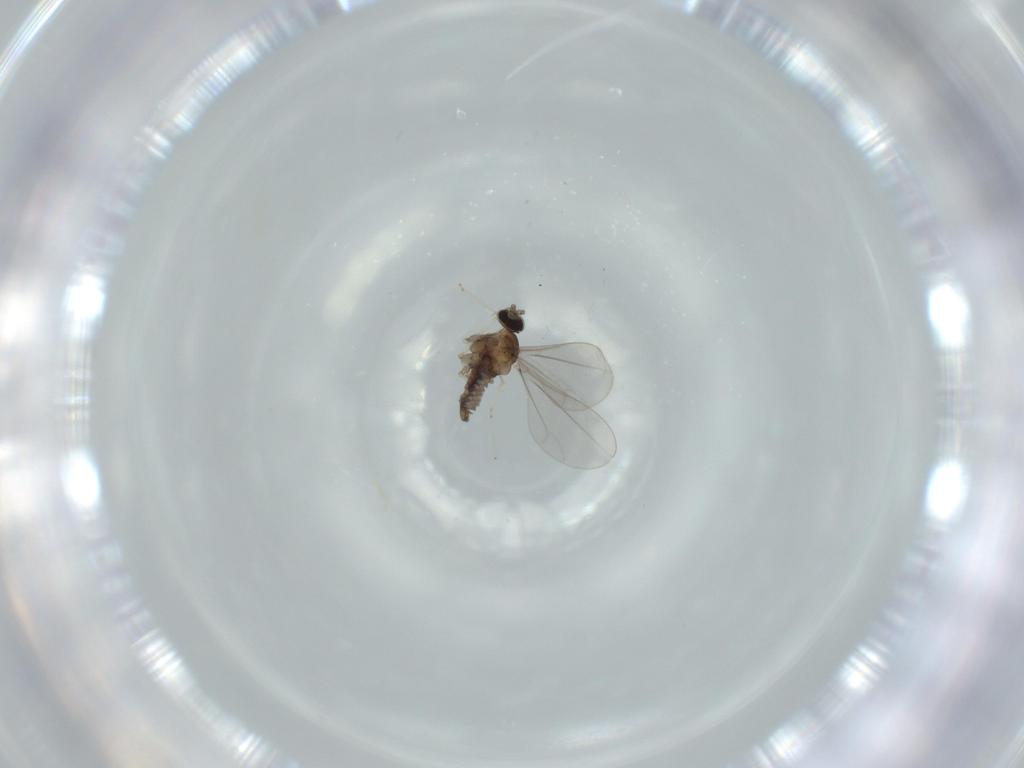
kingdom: Animalia
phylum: Arthropoda
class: Insecta
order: Diptera
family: Cecidomyiidae
